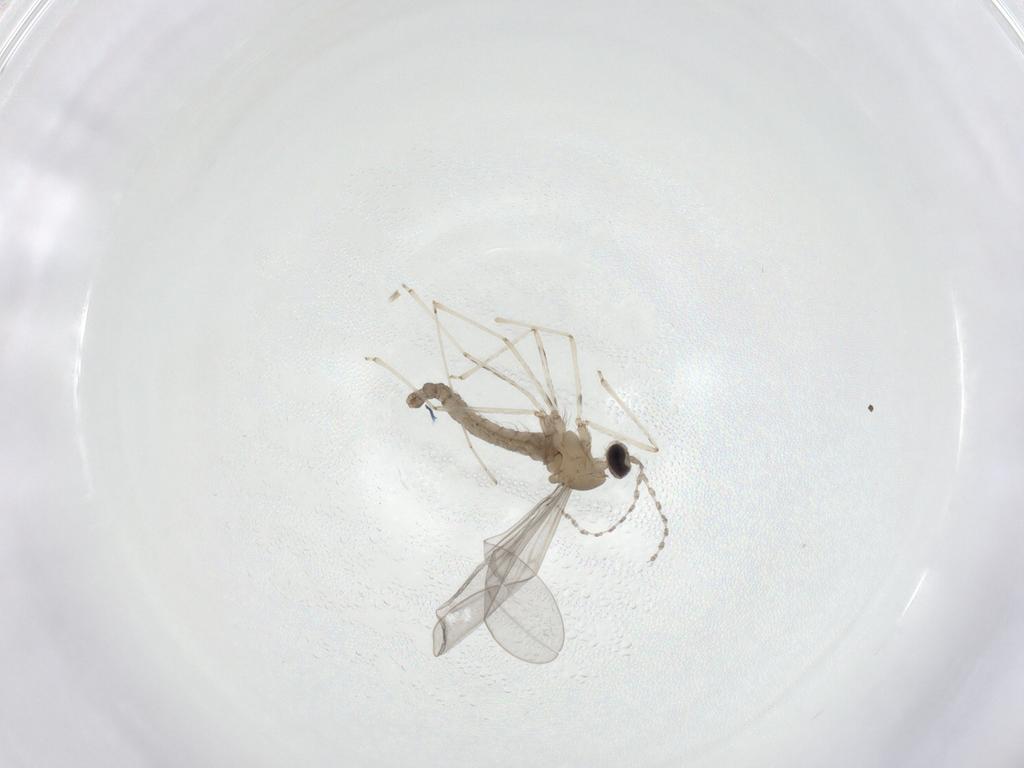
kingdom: Animalia
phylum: Arthropoda
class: Insecta
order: Diptera
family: Cecidomyiidae
